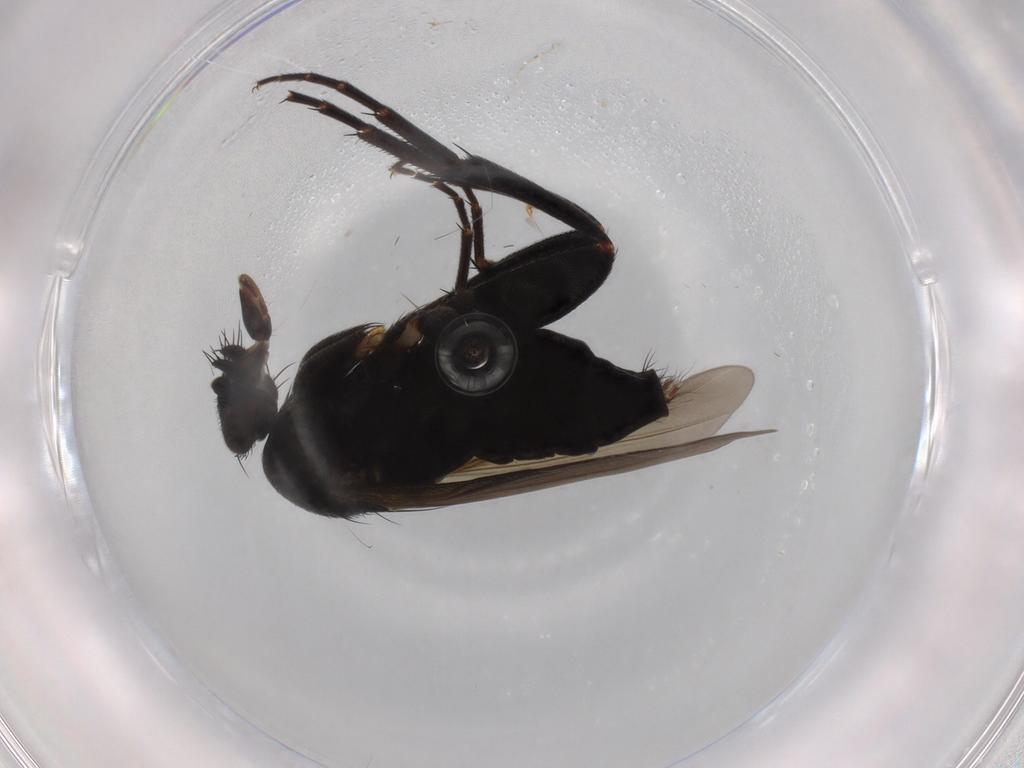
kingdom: Animalia
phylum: Arthropoda
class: Insecta
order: Diptera
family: Phoridae
